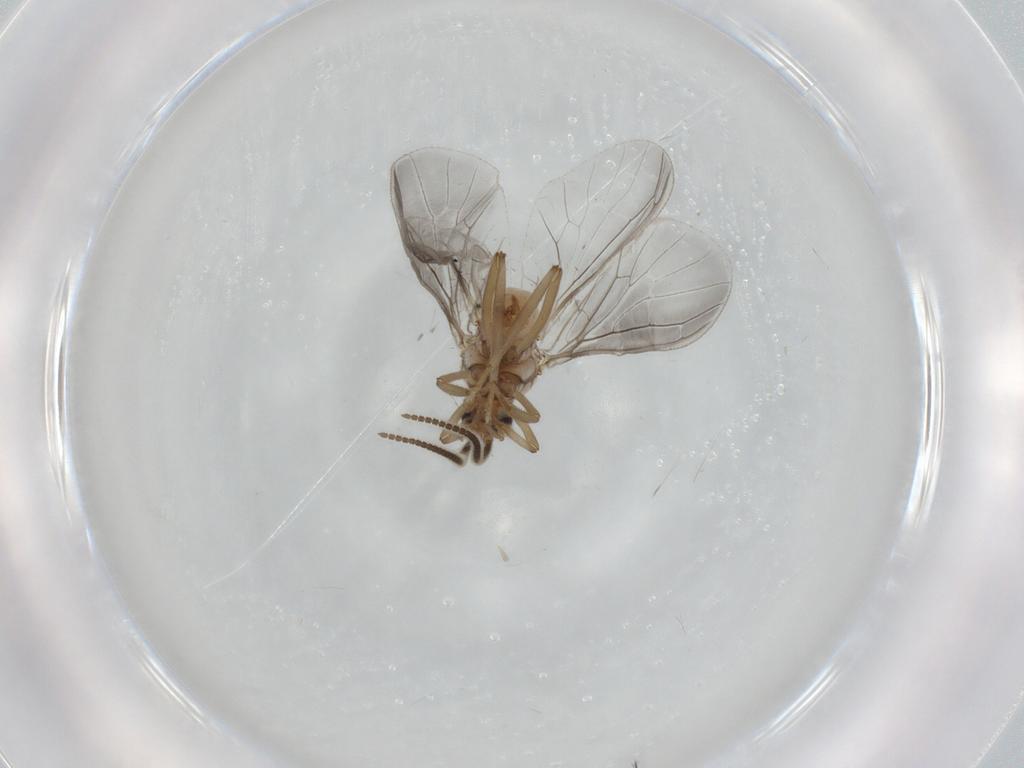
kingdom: Animalia
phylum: Arthropoda
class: Insecta
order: Neuroptera
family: Coniopterygidae
